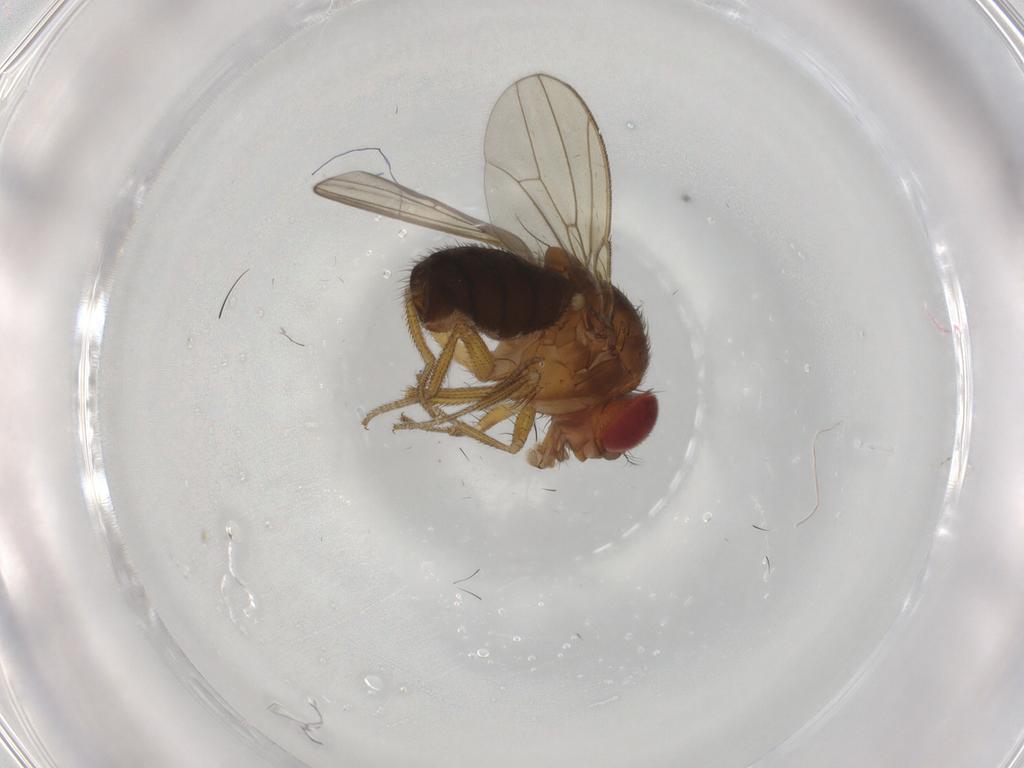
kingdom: Animalia
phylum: Arthropoda
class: Insecta
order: Diptera
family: Drosophilidae
